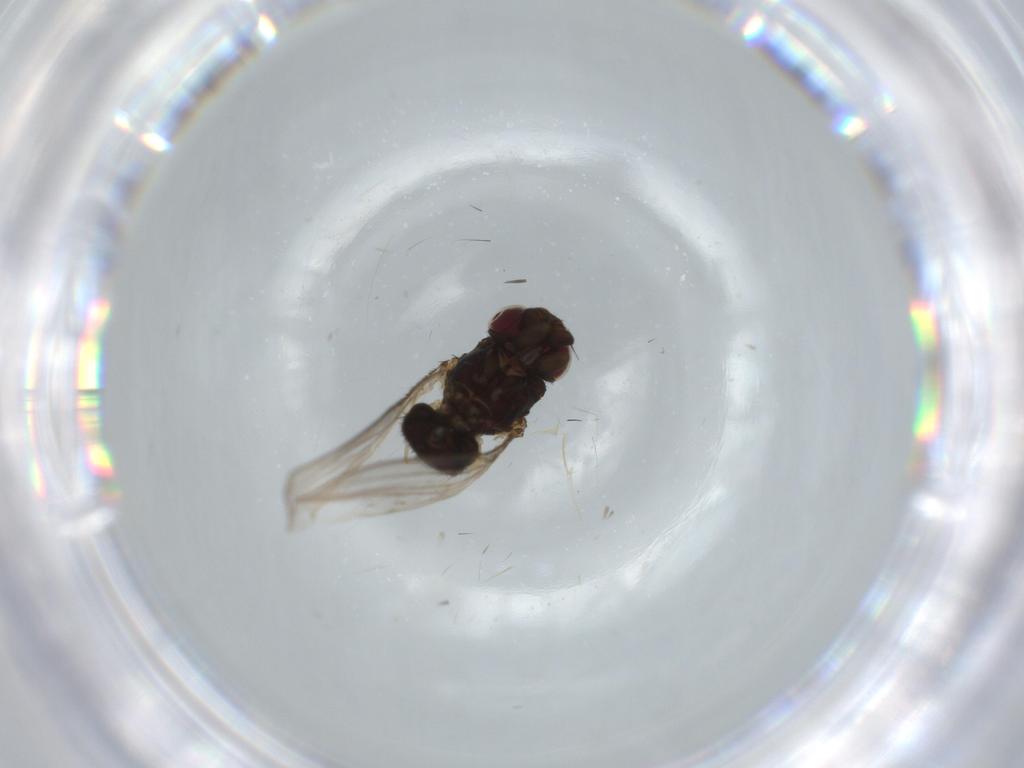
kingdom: Animalia
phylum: Arthropoda
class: Insecta
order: Diptera
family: Milichiidae
